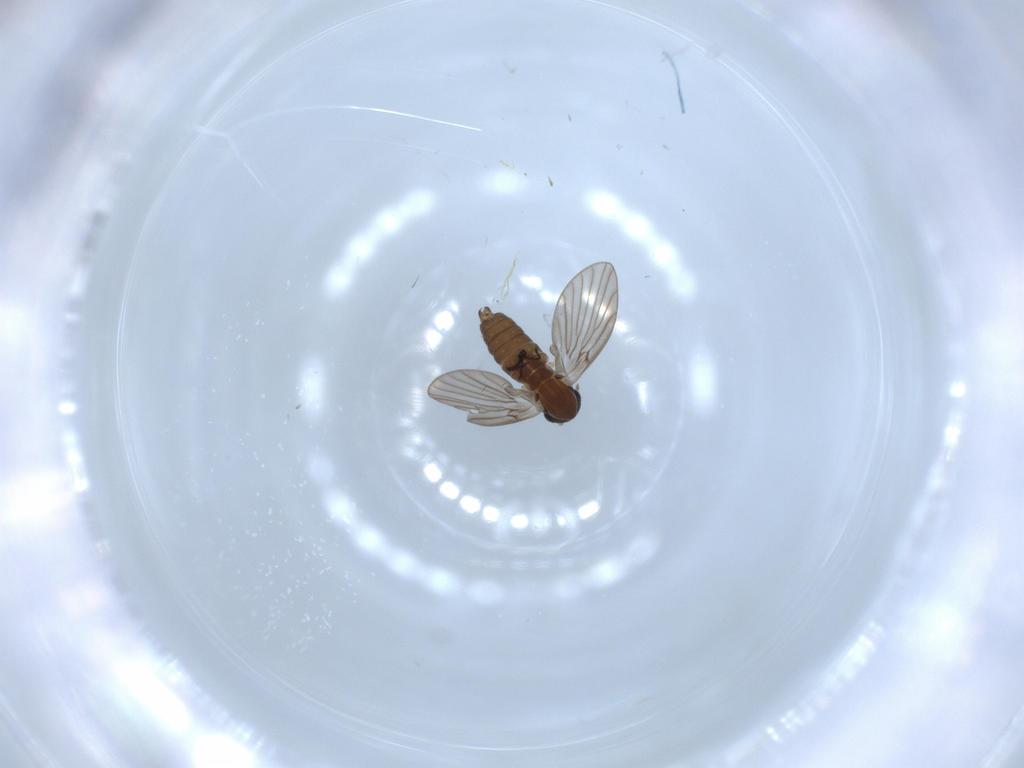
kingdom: Animalia
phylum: Arthropoda
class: Insecta
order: Diptera
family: Psychodidae
